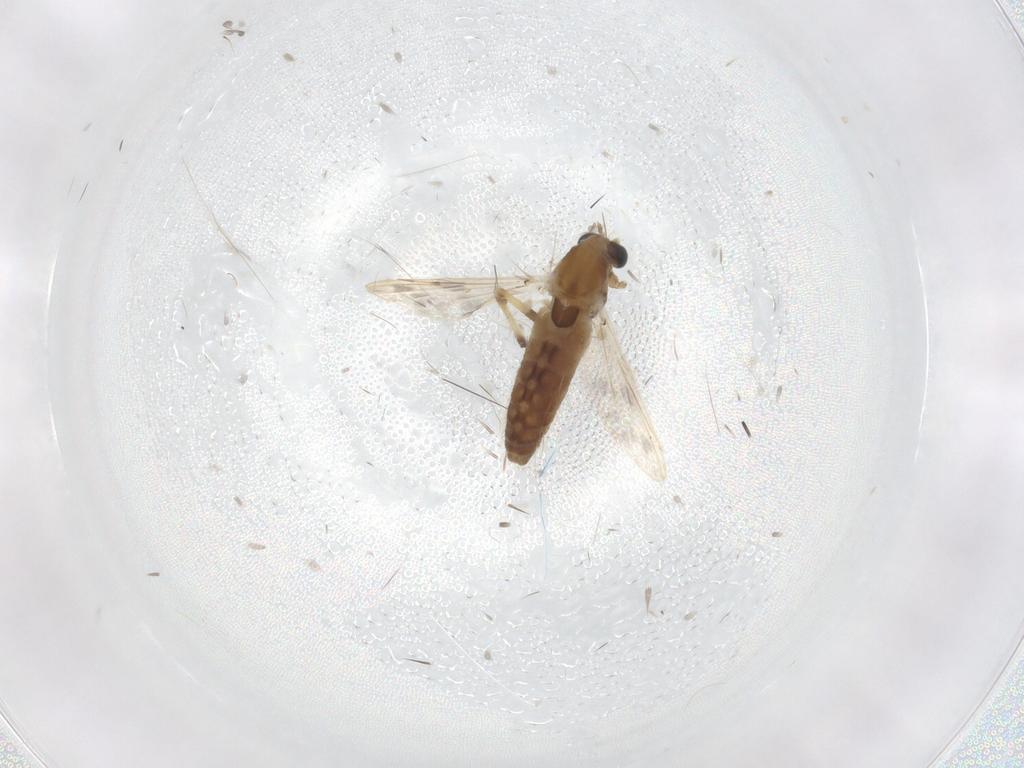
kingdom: Animalia
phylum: Arthropoda
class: Insecta
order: Diptera
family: Chironomidae
